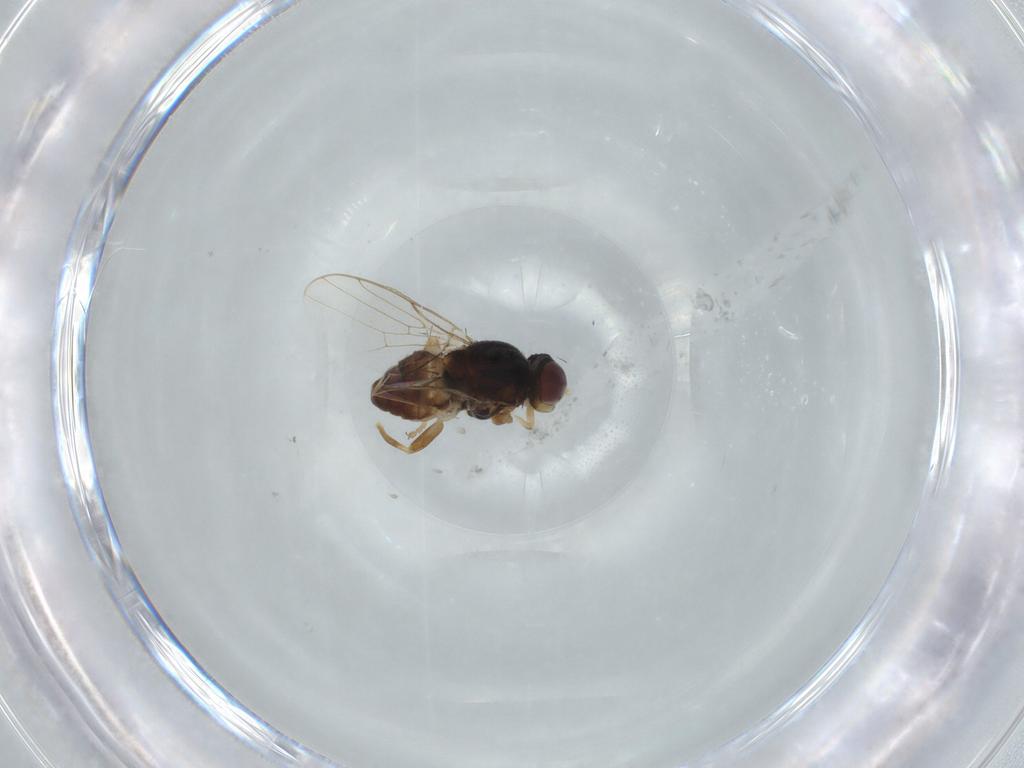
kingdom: Animalia
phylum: Arthropoda
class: Insecta
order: Diptera
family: Chloropidae
